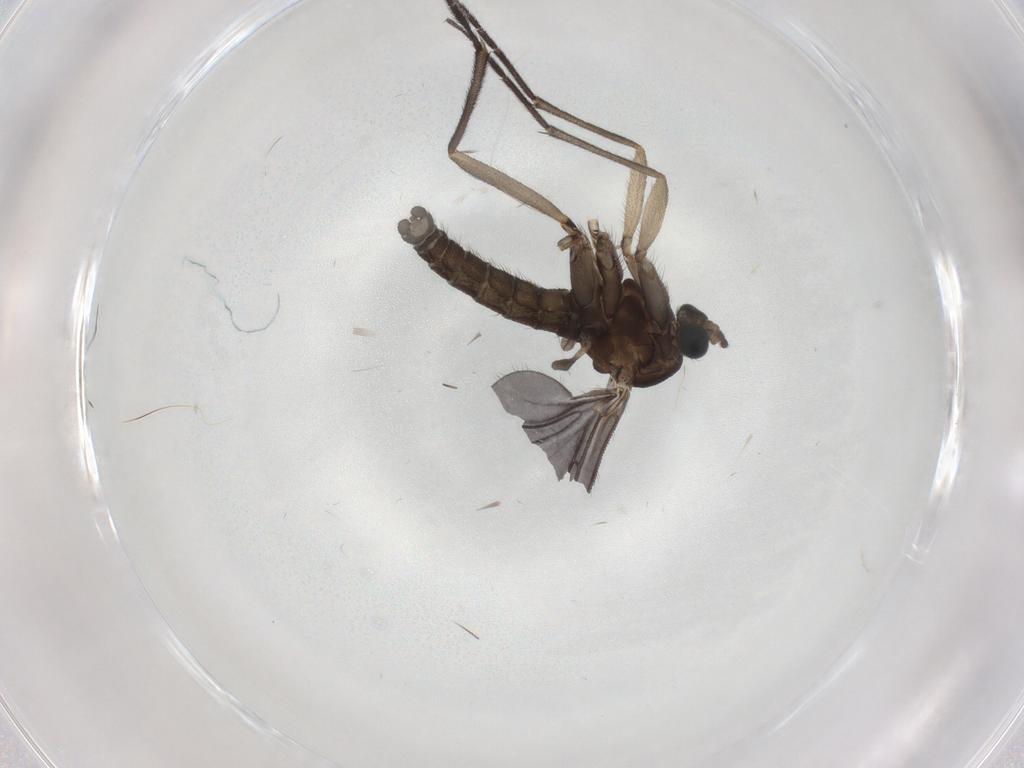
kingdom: Animalia
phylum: Arthropoda
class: Insecta
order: Diptera
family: Sciaridae
